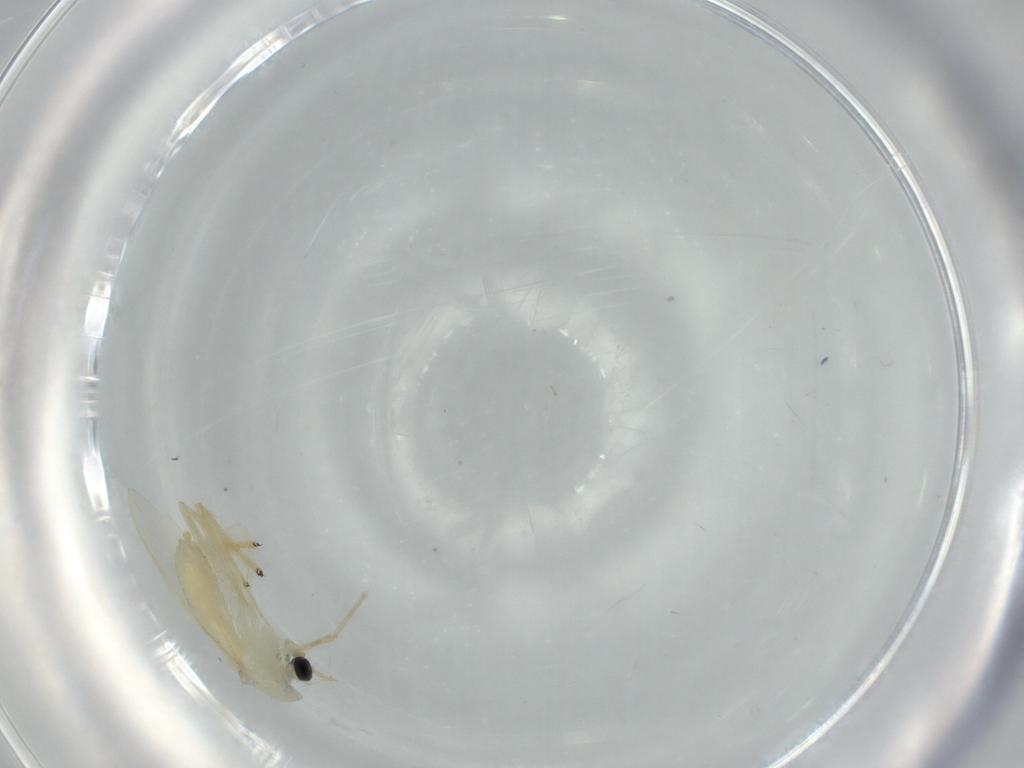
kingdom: Animalia
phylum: Arthropoda
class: Insecta
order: Diptera
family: Chironomidae
